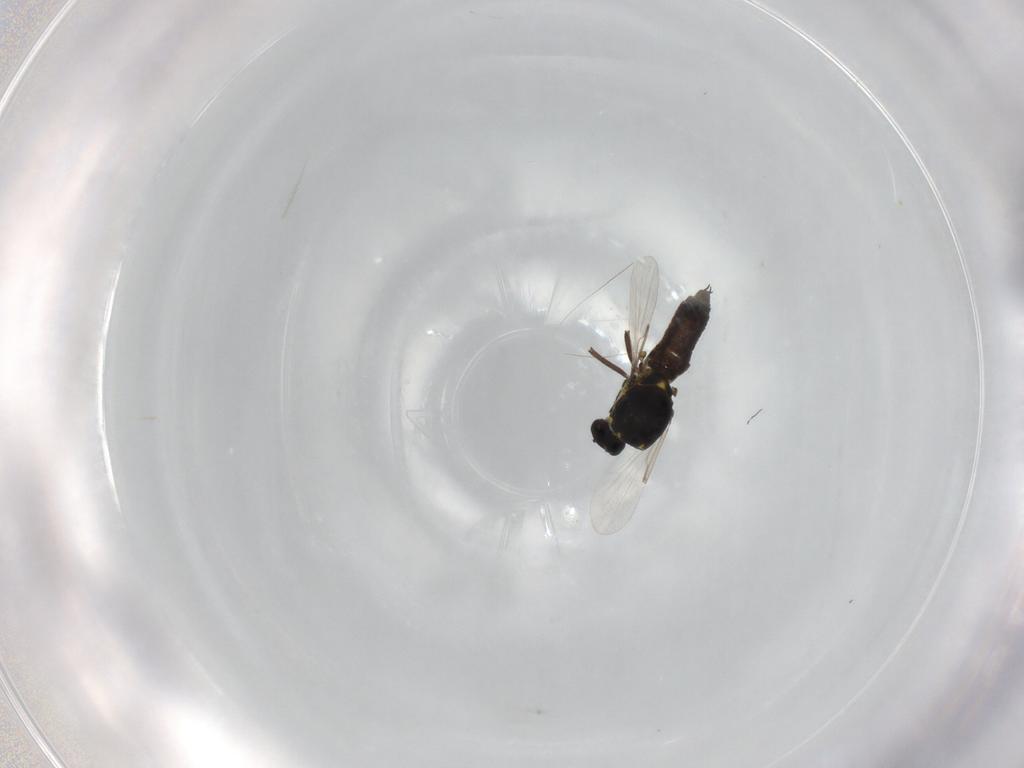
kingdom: Animalia
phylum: Arthropoda
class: Insecta
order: Diptera
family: Ceratopogonidae
